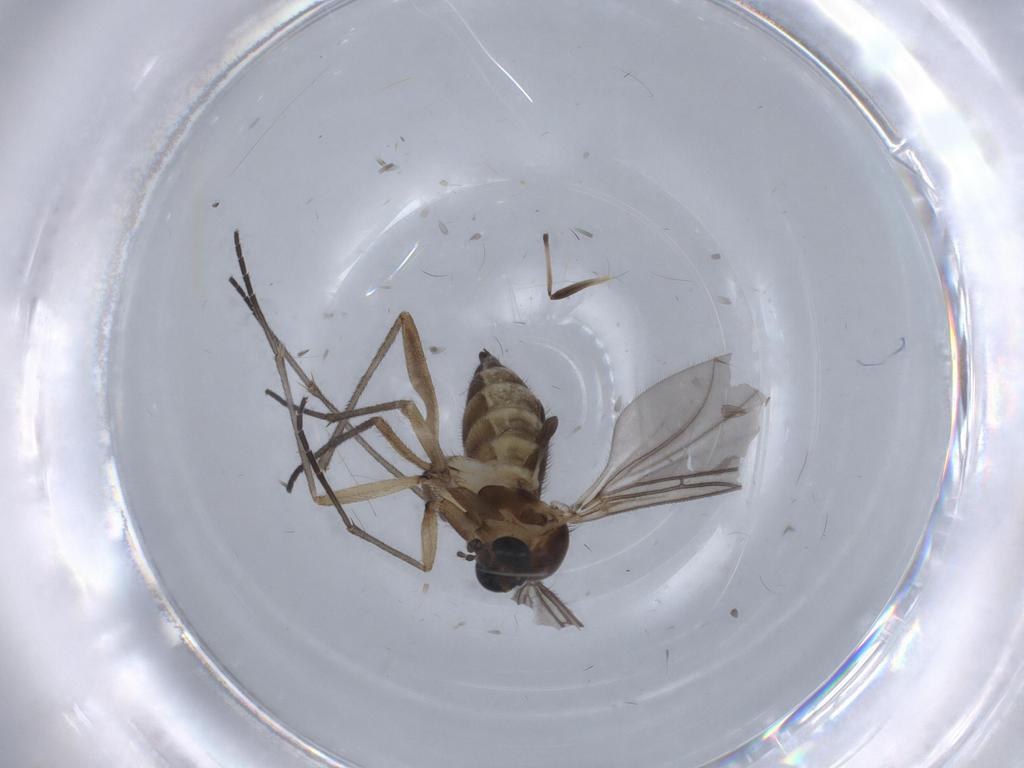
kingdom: Animalia
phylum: Arthropoda
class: Insecta
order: Diptera
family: Sciaridae
